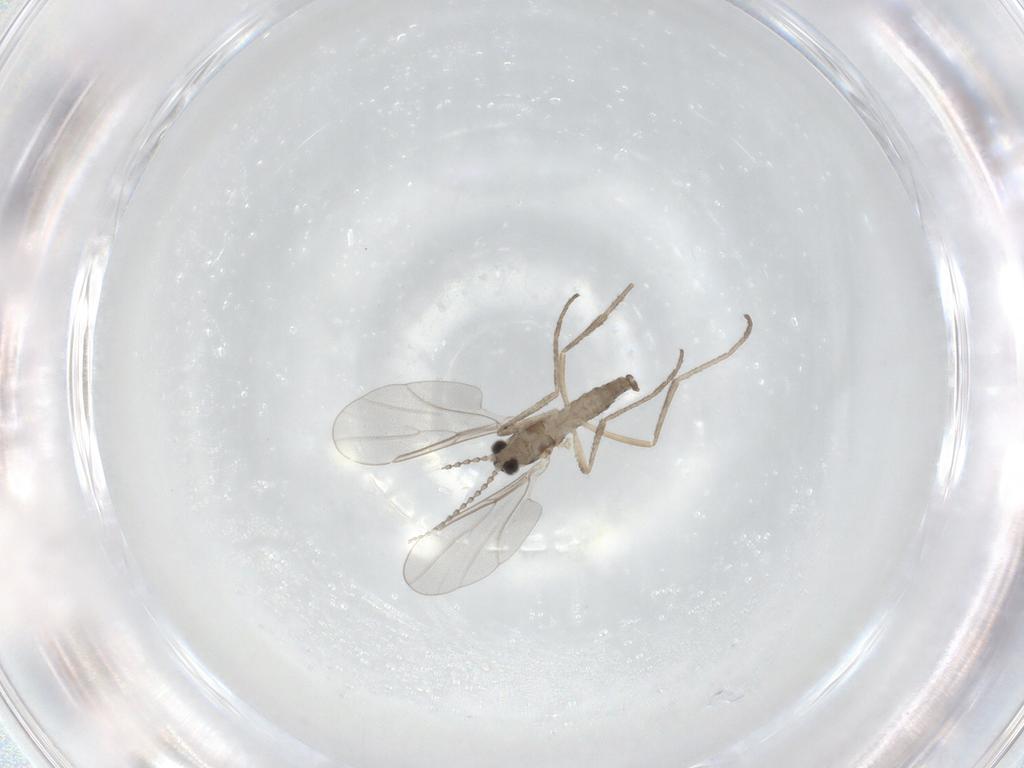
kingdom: Animalia
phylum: Arthropoda
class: Insecta
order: Diptera
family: Cecidomyiidae
